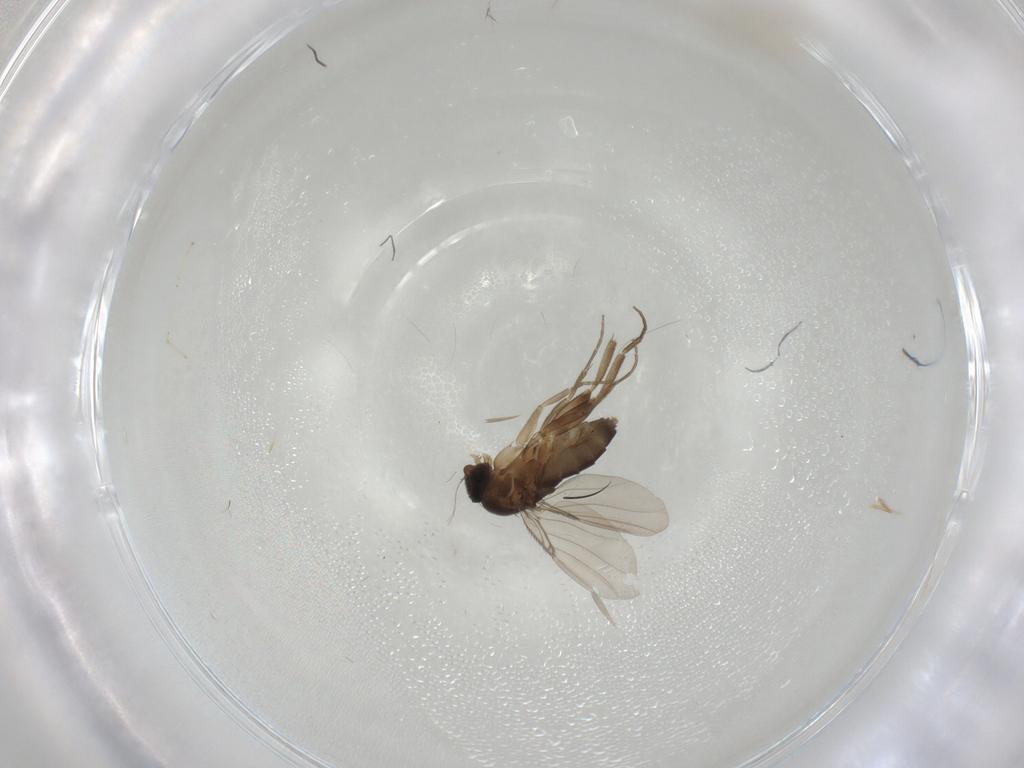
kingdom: Animalia
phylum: Arthropoda
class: Insecta
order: Diptera
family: Phoridae
